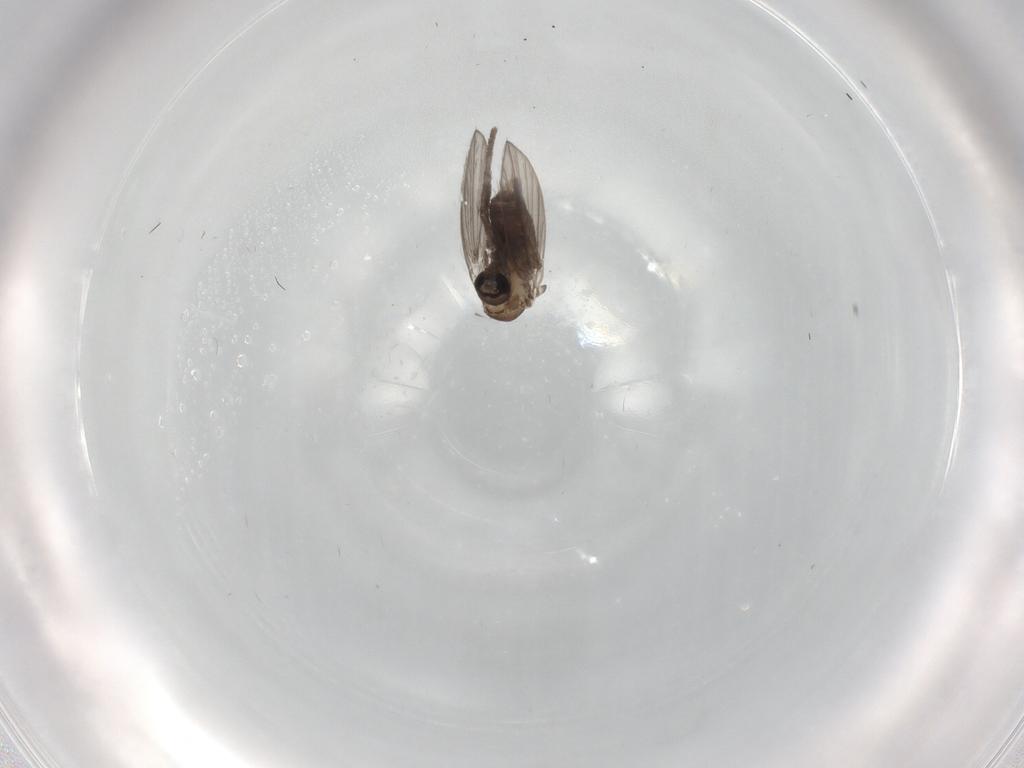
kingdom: Animalia
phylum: Arthropoda
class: Insecta
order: Diptera
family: Psychodidae
